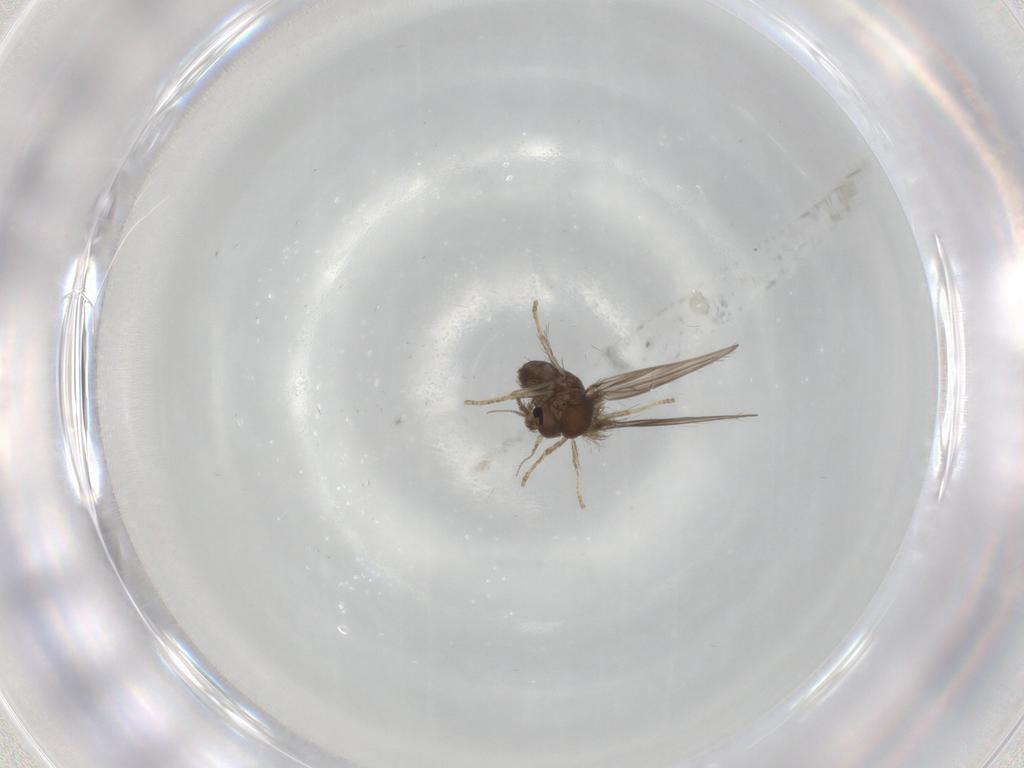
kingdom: Animalia
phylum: Arthropoda
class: Insecta
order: Diptera
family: Psychodidae
